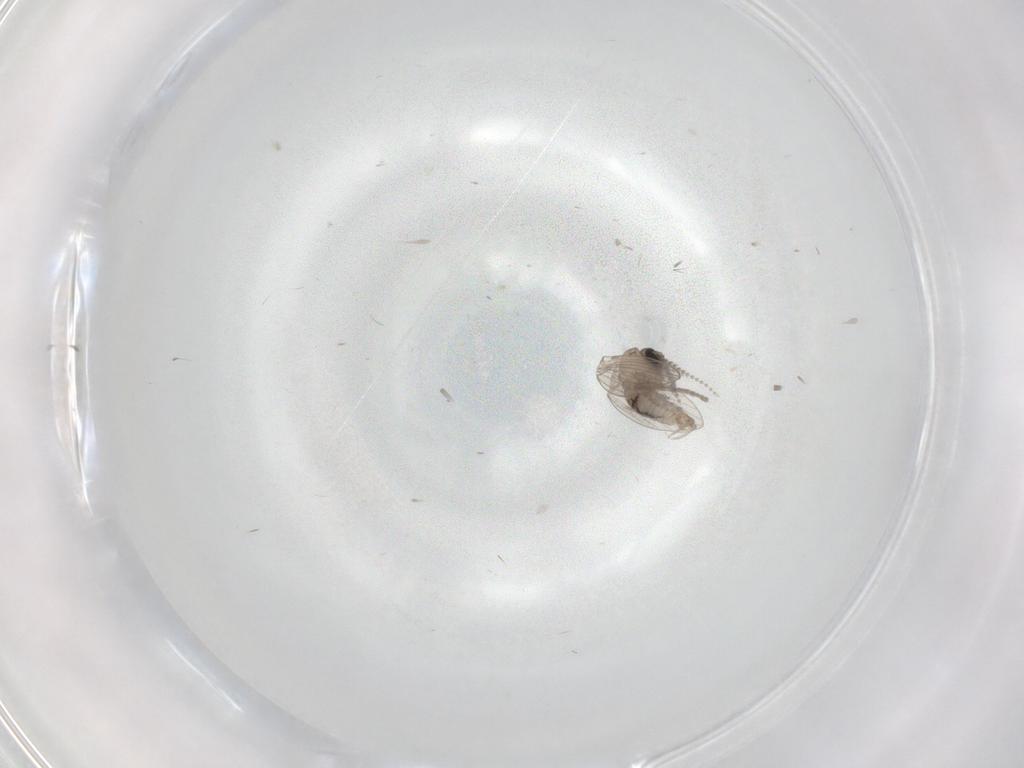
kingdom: Animalia
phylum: Arthropoda
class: Insecta
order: Diptera
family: Psychodidae
